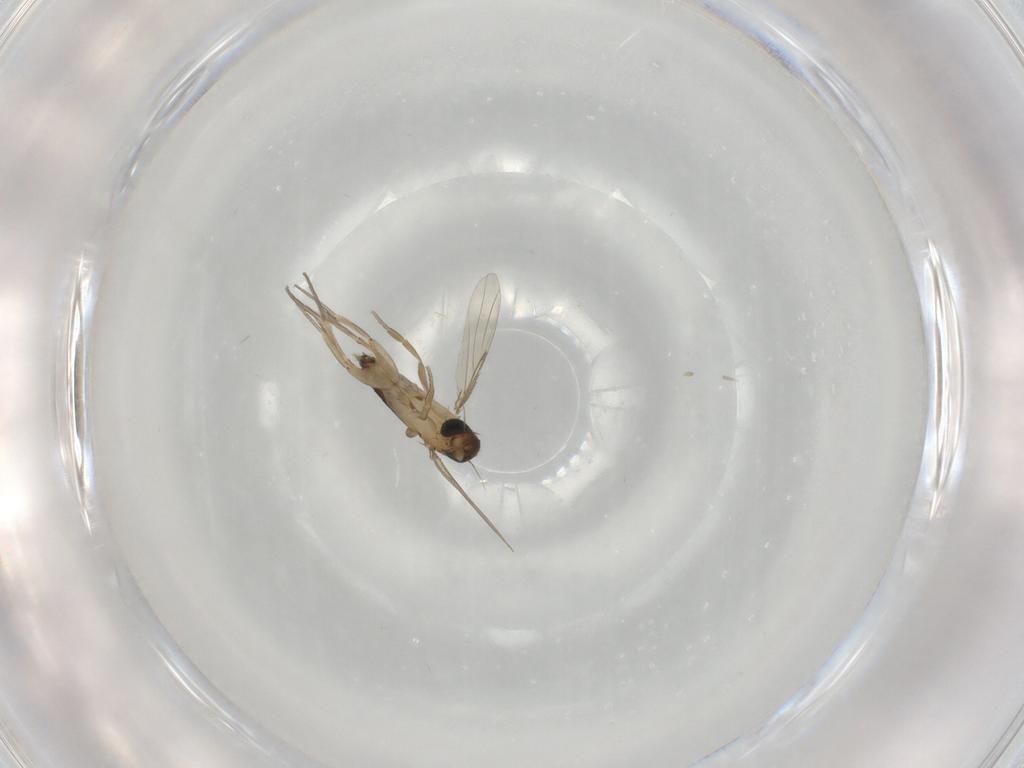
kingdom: Animalia
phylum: Arthropoda
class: Insecta
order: Diptera
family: Phoridae
